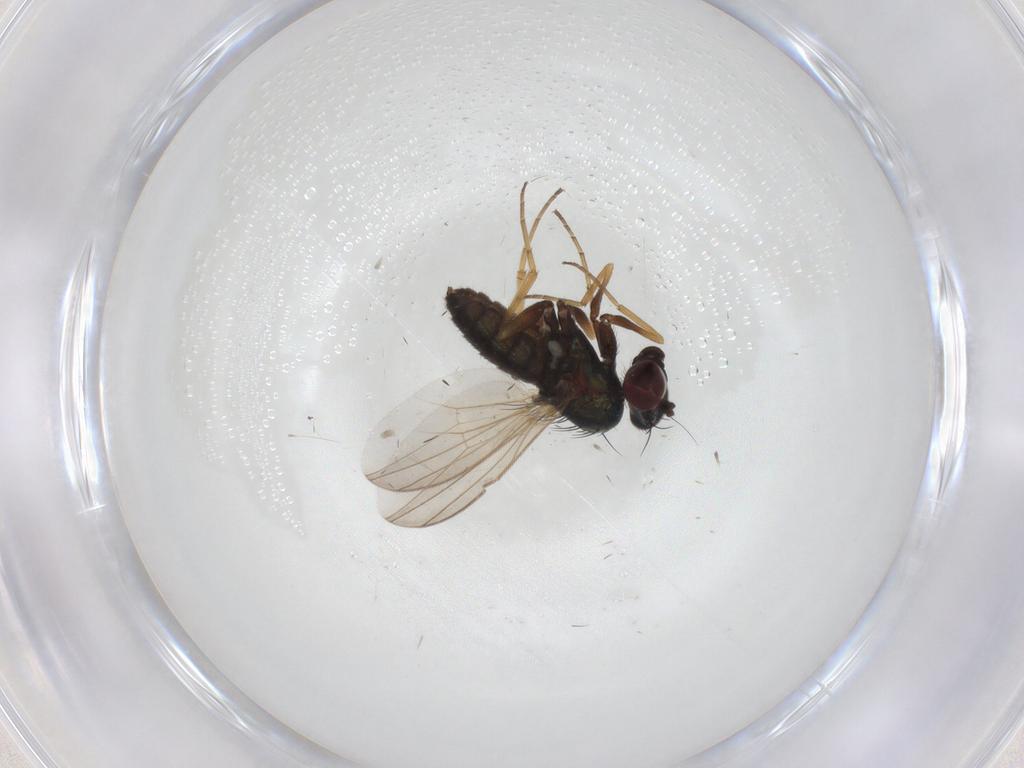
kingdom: Animalia
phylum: Arthropoda
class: Insecta
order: Diptera
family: Dolichopodidae
